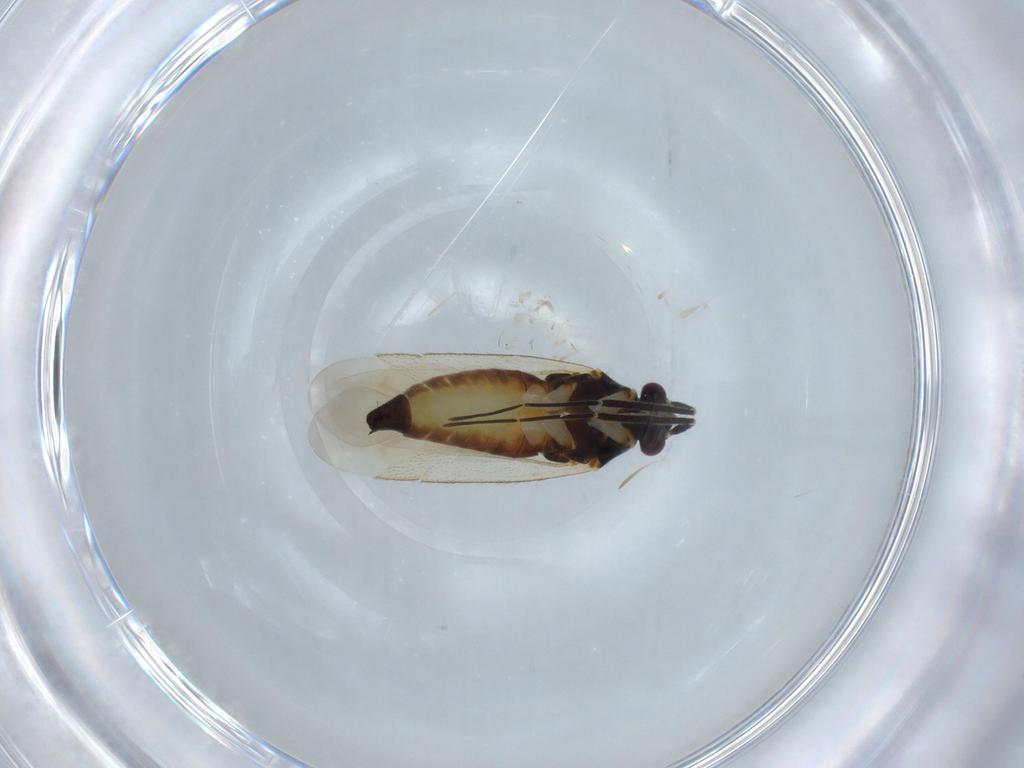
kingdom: Animalia
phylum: Arthropoda
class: Insecta
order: Hemiptera
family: Miridae
